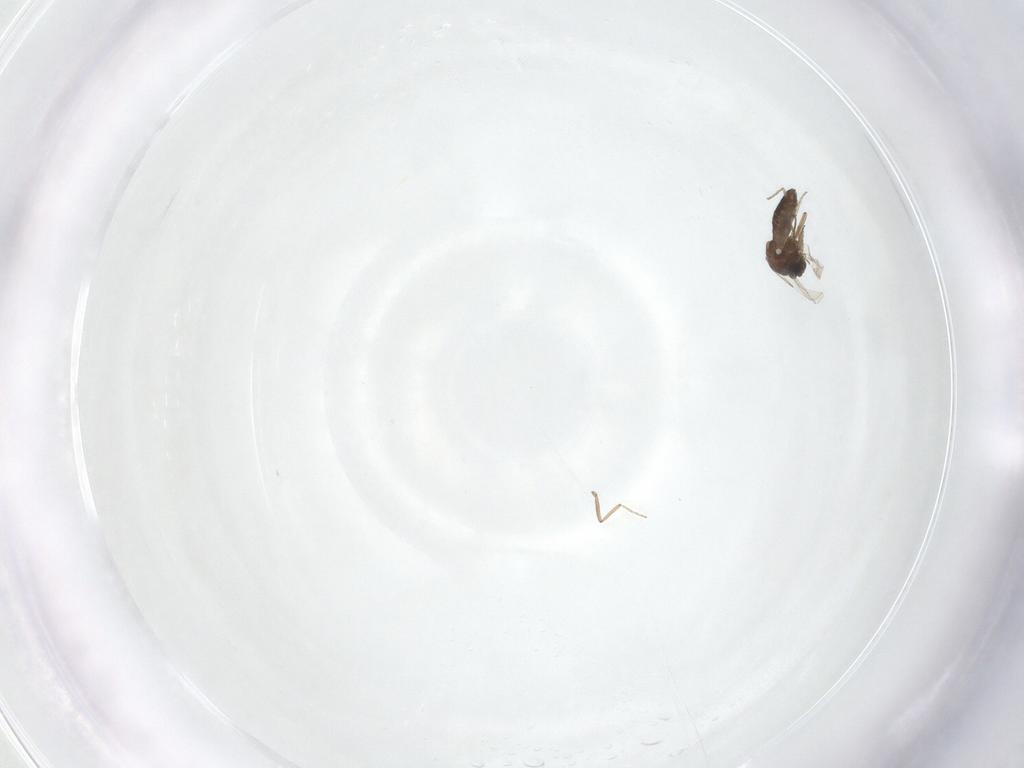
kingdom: Animalia
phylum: Arthropoda
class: Insecta
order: Diptera
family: Ceratopogonidae
